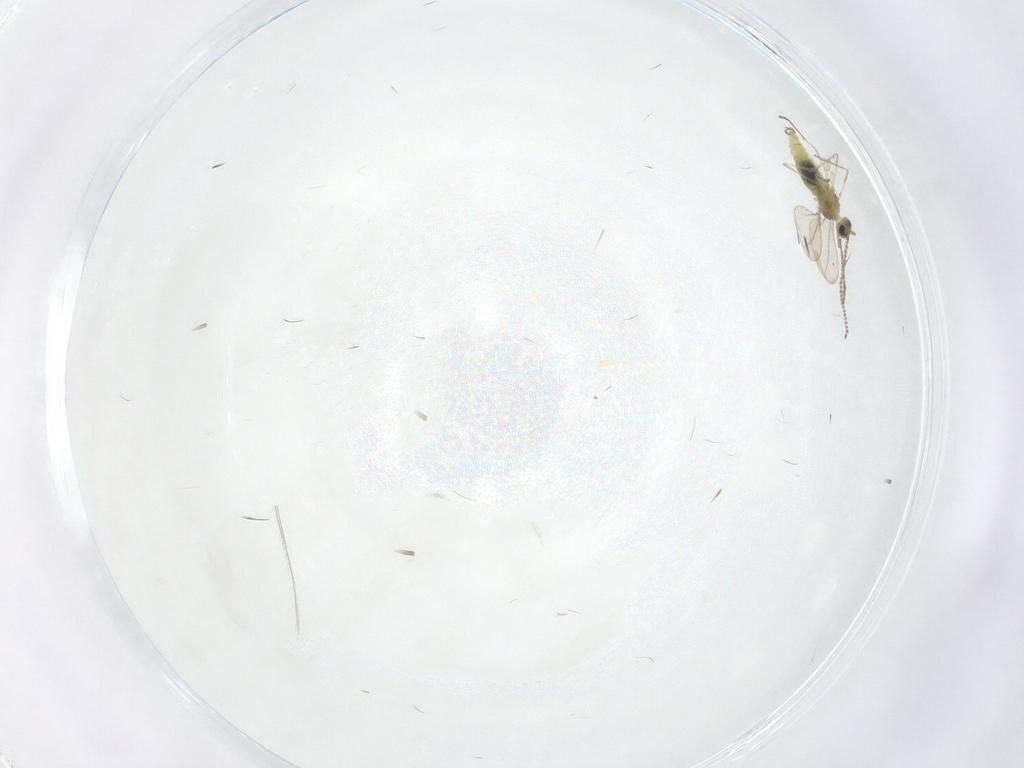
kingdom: Animalia
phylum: Arthropoda
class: Insecta
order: Diptera
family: Cecidomyiidae
